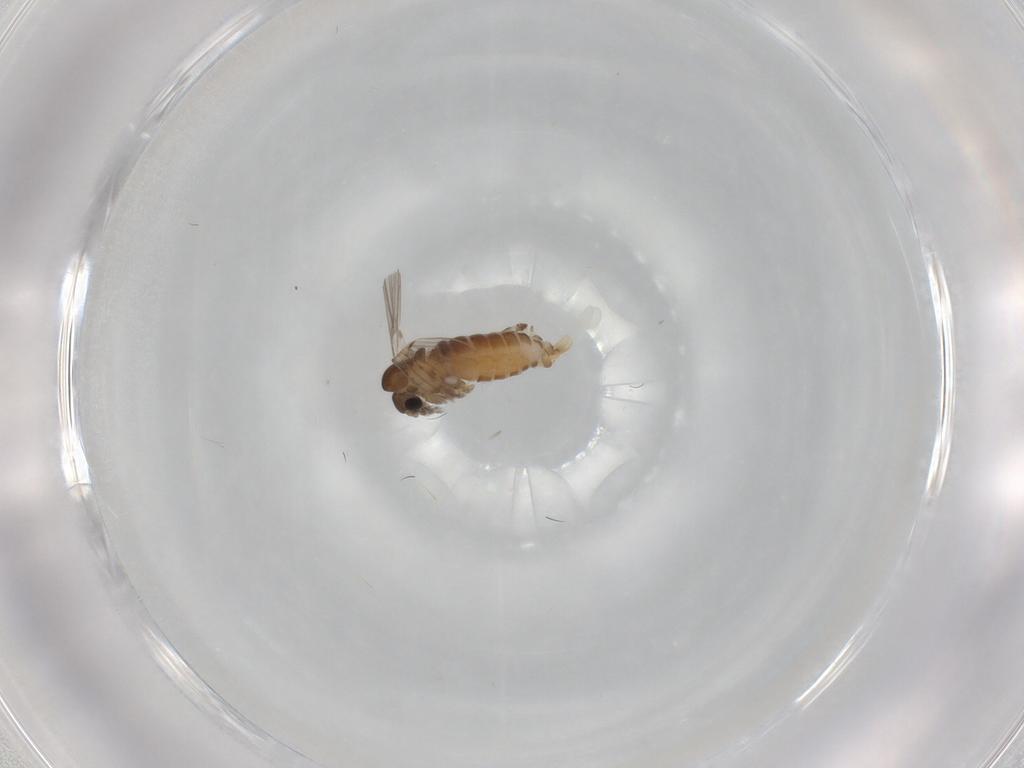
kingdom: Animalia
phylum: Arthropoda
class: Insecta
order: Diptera
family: Psychodidae
